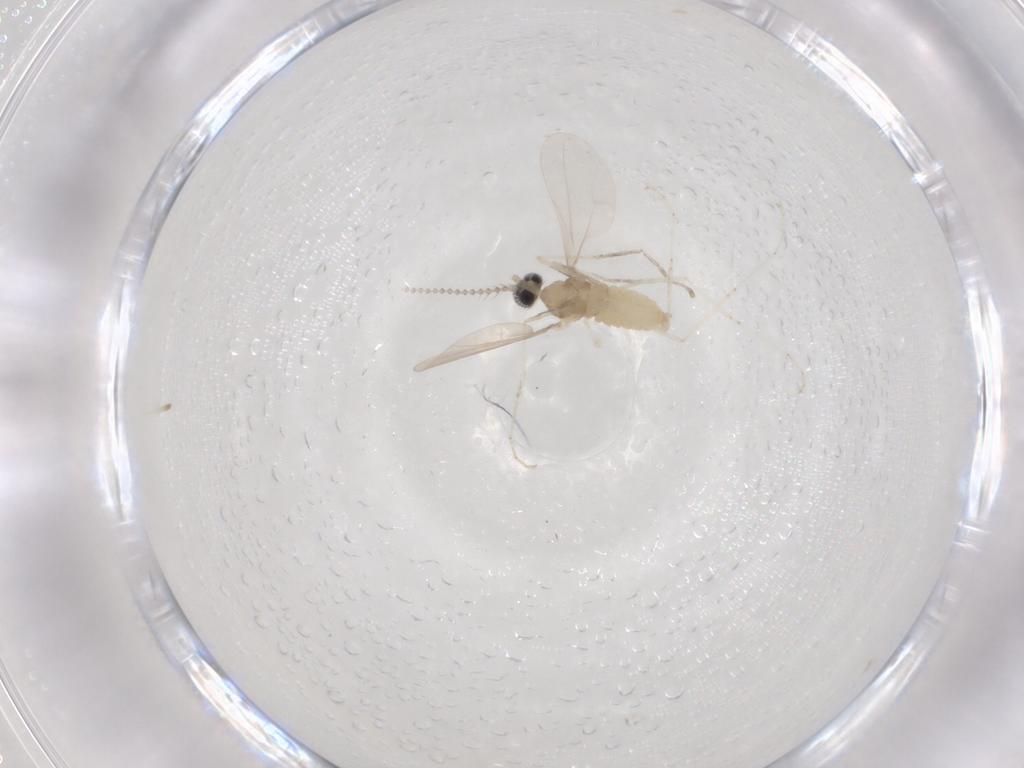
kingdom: Animalia
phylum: Arthropoda
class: Insecta
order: Diptera
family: Cecidomyiidae
